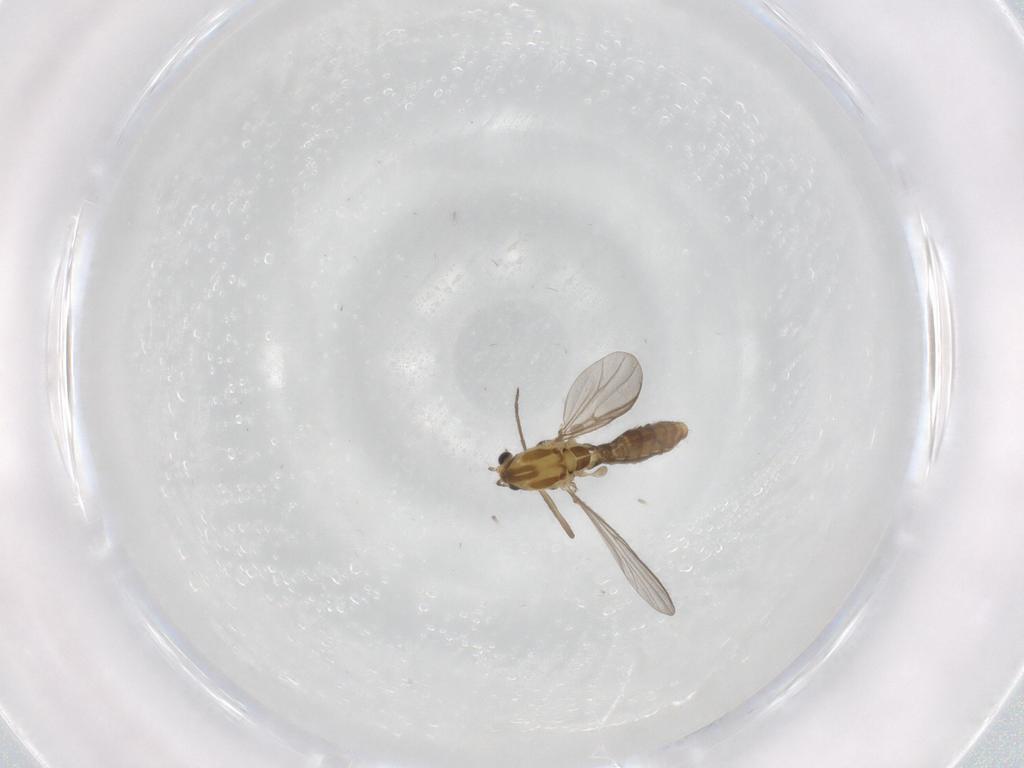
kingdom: Animalia
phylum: Arthropoda
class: Insecta
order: Diptera
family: Chironomidae
